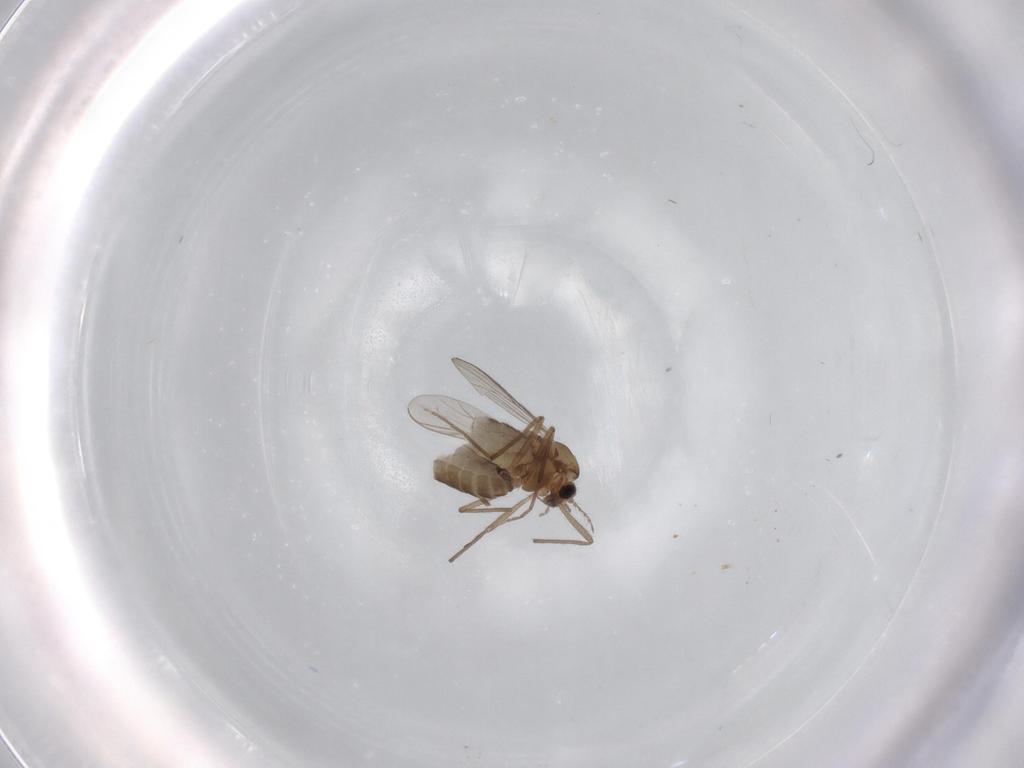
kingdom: Animalia
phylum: Arthropoda
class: Insecta
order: Diptera
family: Chironomidae
